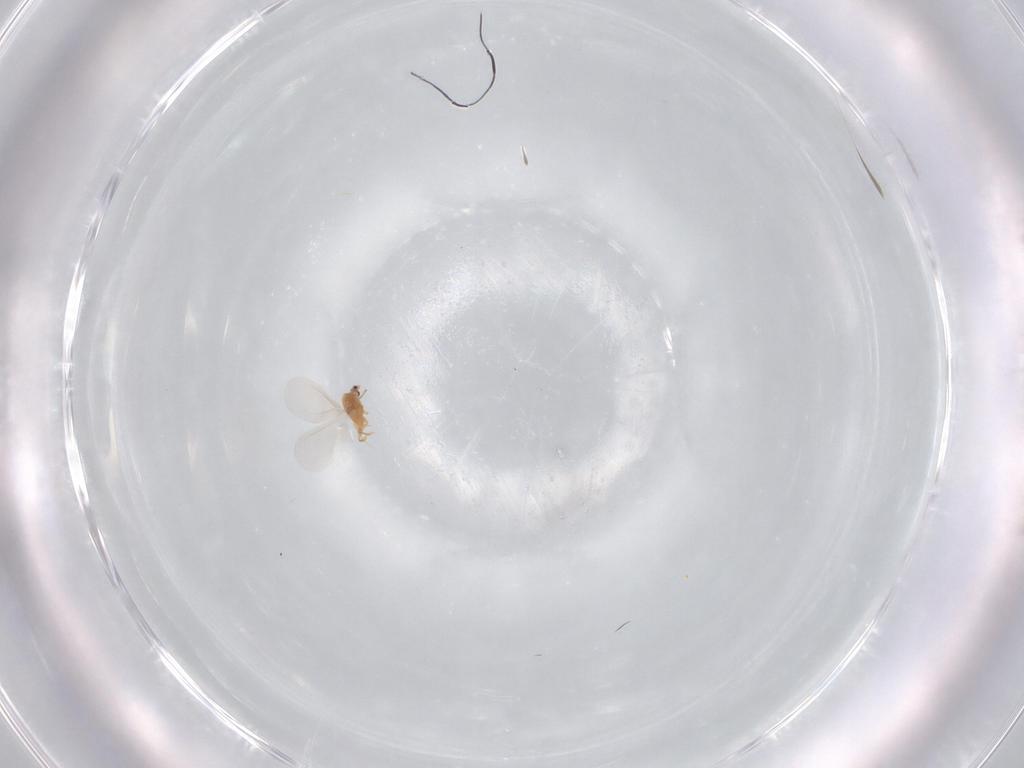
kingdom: Animalia
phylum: Arthropoda
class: Insecta
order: Hemiptera
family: Diaspididae
